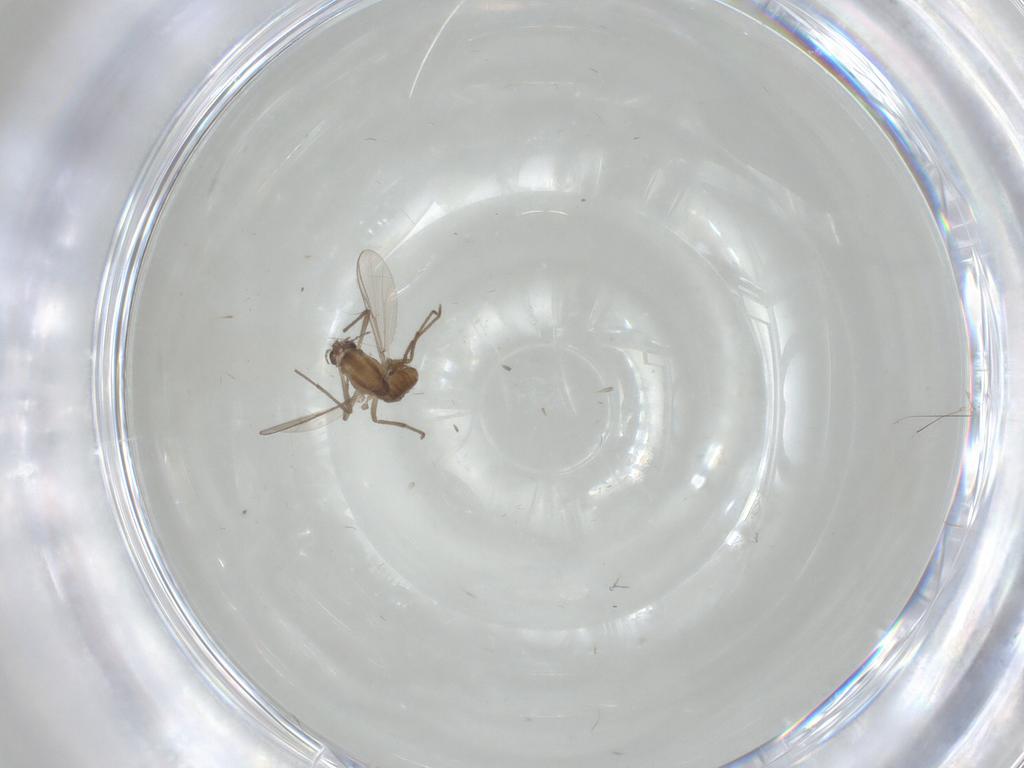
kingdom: Animalia
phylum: Arthropoda
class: Insecta
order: Diptera
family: Chironomidae
